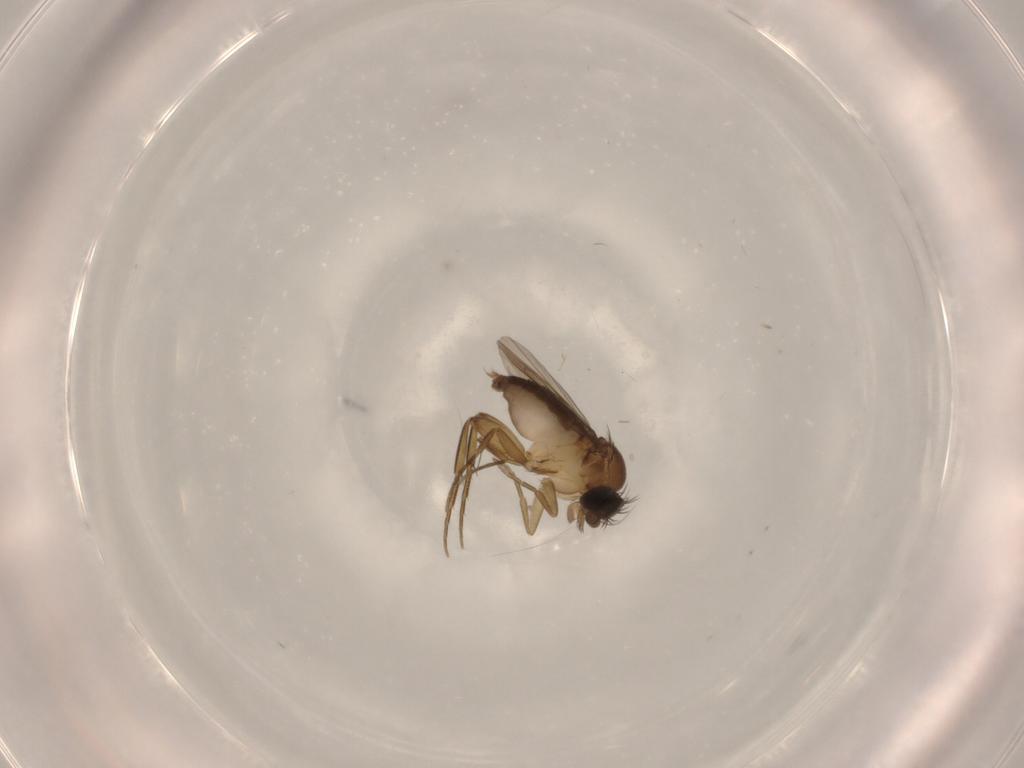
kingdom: Animalia
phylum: Arthropoda
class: Insecta
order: Diptera
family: Phoridae
